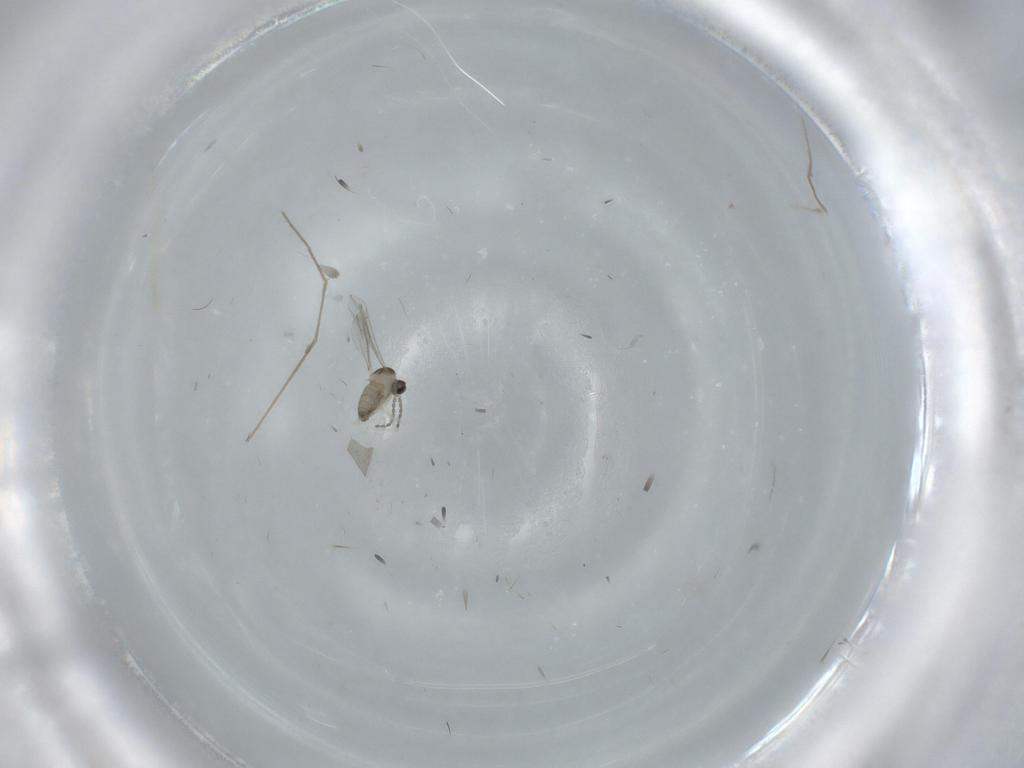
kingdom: Animalia
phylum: Arthropoda
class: Insecta
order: Diptera
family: Cecidomyiidae
